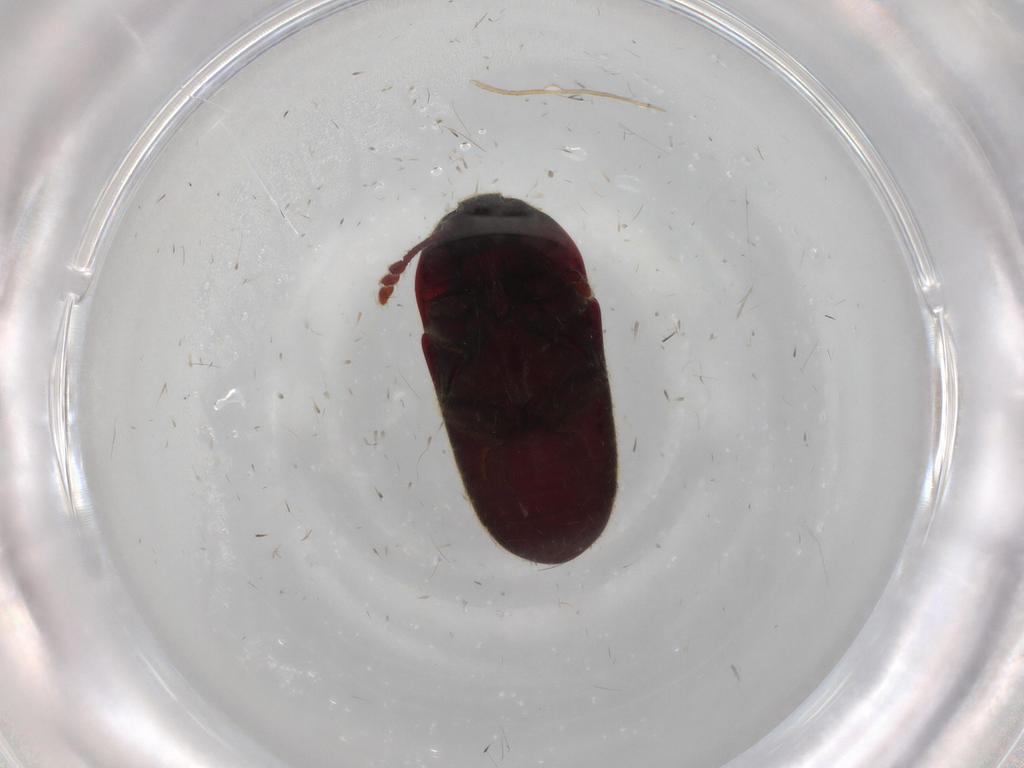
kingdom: Animalia
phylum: Arthropoda
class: Insecta
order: Coleoptera
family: Throscidae
